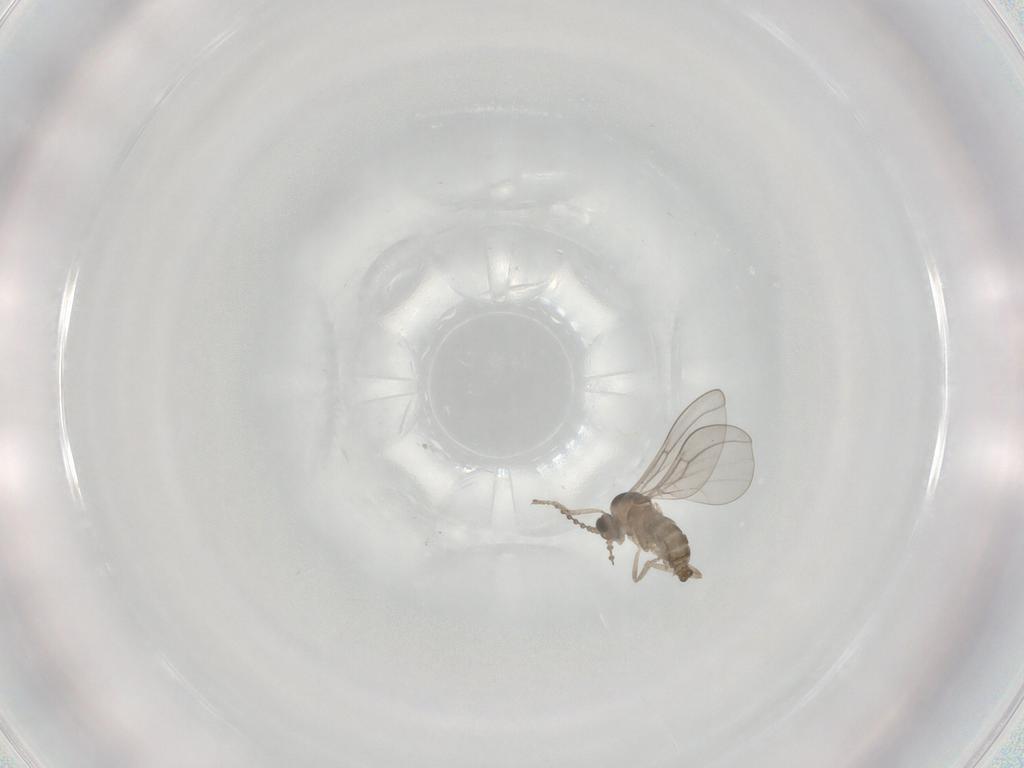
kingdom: Animalia
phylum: Arthropoda
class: Insecta
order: Diptera
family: Cecidomyiidae
